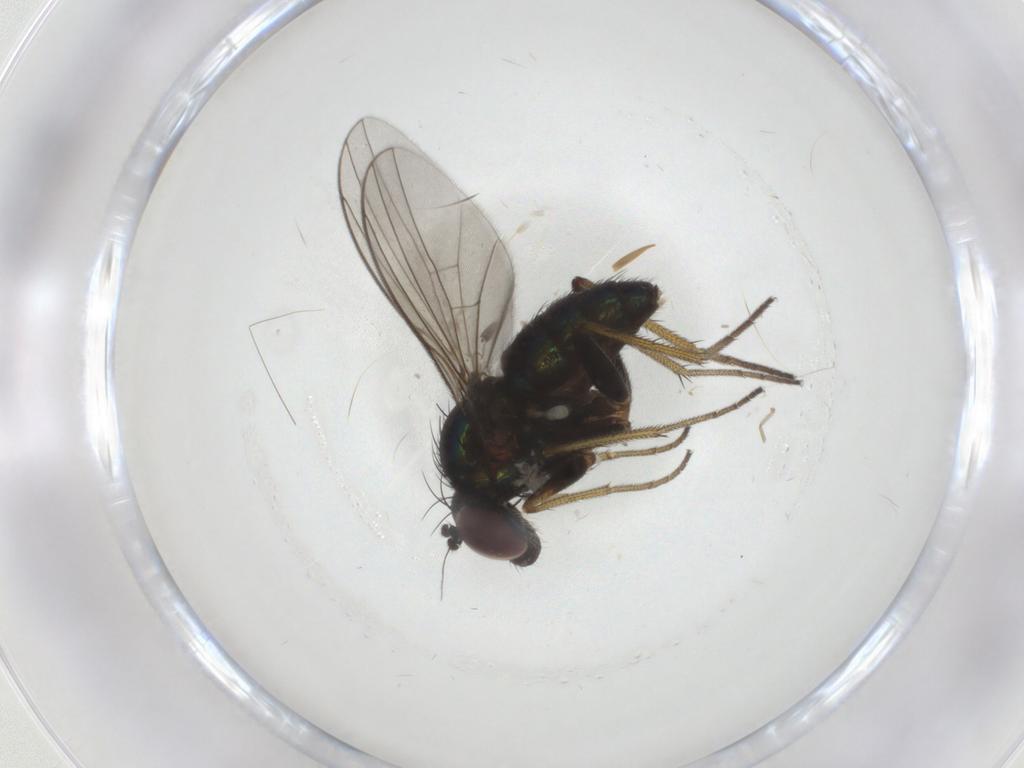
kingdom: Animalia
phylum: Arthropoda
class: Insecta
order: Diptera
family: Dolichopodidae
